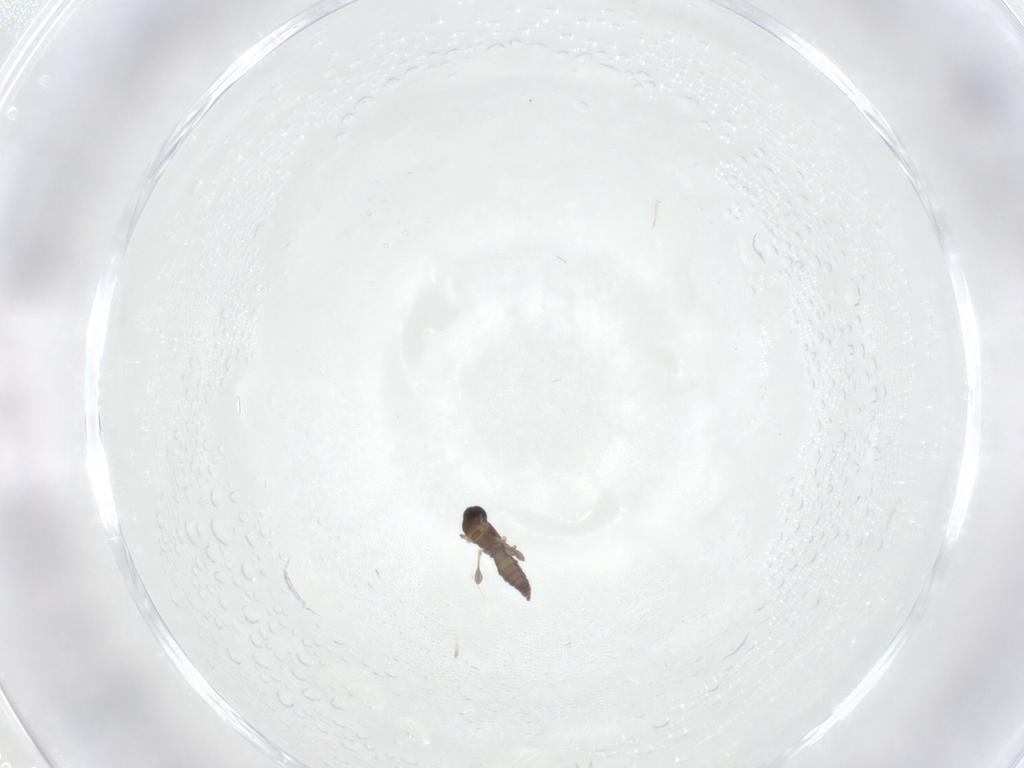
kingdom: Animalia
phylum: Arthropoda
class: Insecta
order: Diptera
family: Sciaridae
